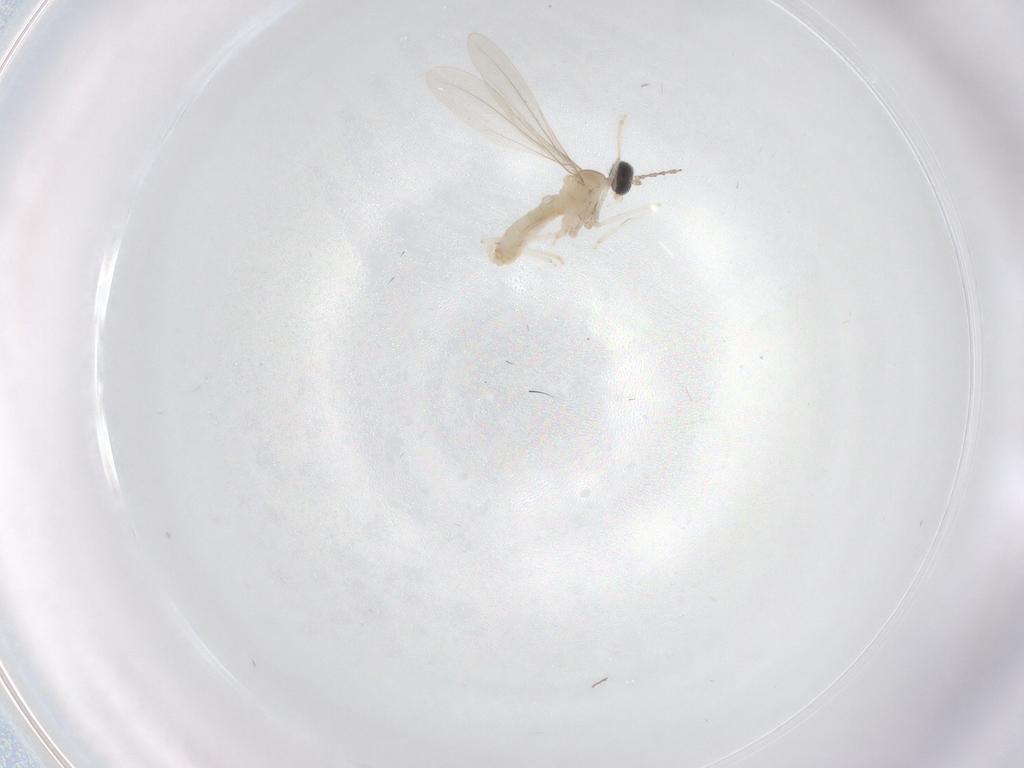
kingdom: Animalia
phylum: Arthropoda
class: Insecta
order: Diptera
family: Cecidomyiidae
